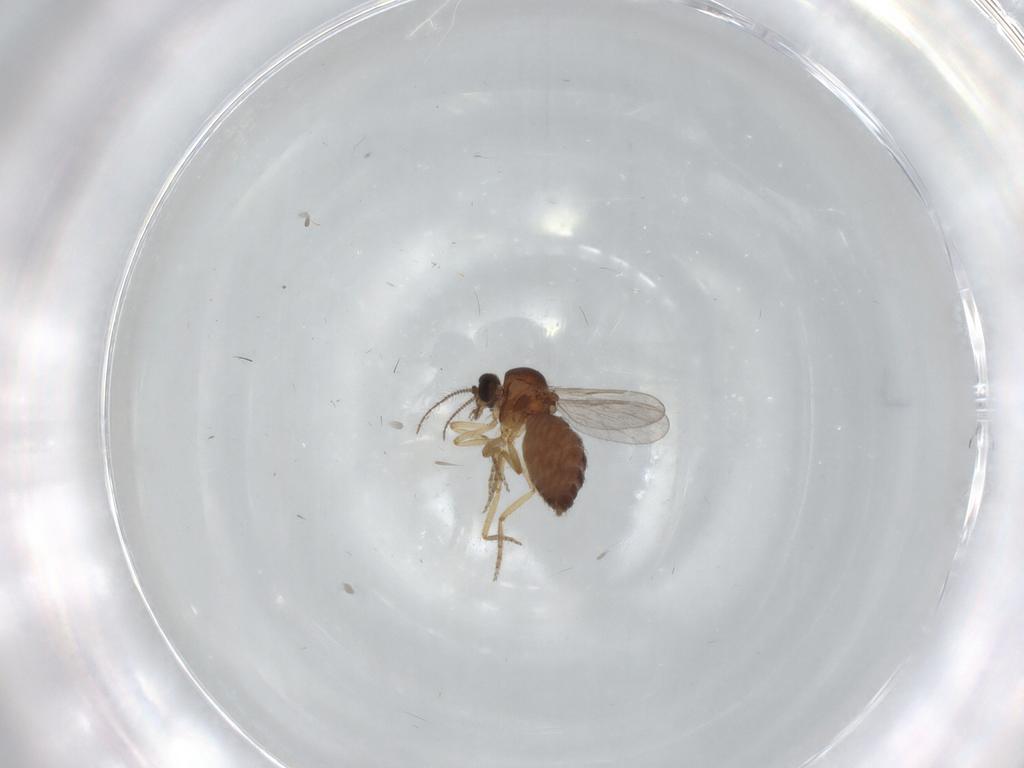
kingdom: Animalia
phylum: Arthropoda
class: Insecta
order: Diptera
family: Ceratopogonidae
